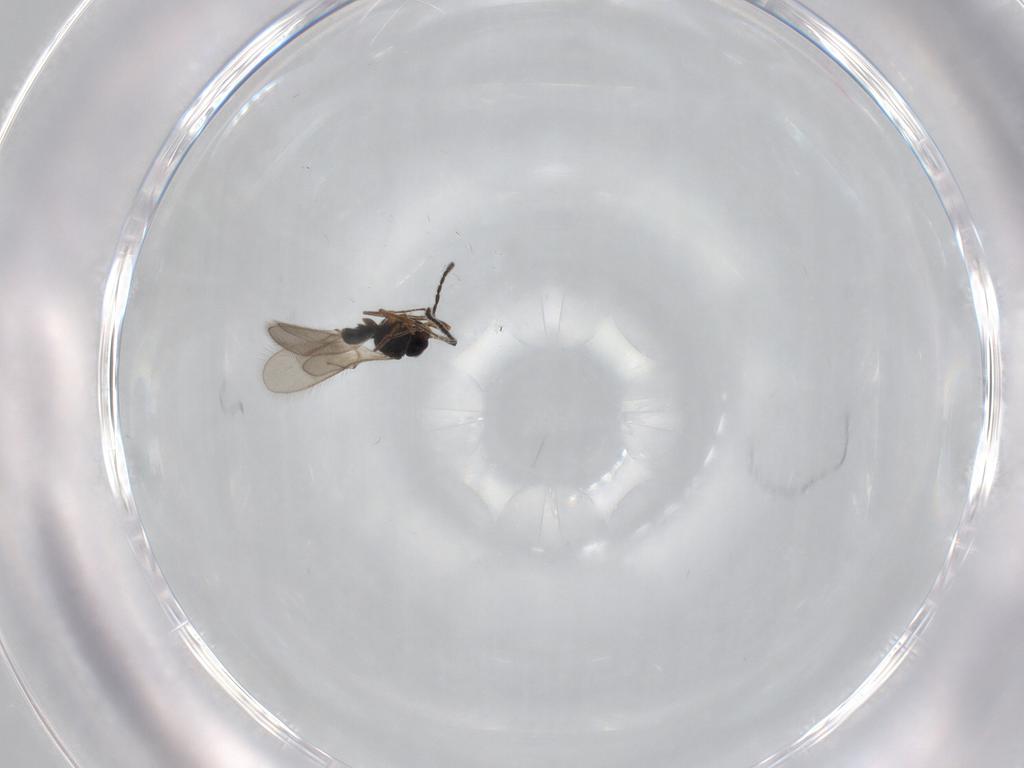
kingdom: Animalia
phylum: Arthropoda
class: Insecta
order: Hymenoptera
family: Scelionidae
